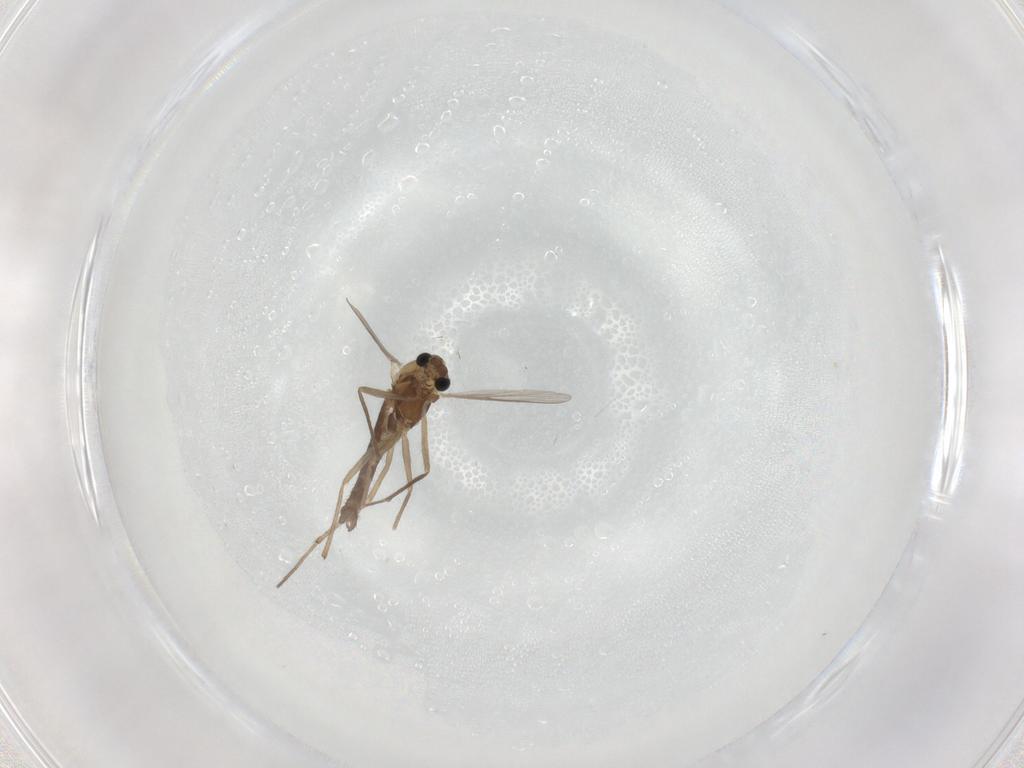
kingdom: Animalia
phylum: Arthropoda
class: Insecta
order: Diptera
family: Chironomidae
